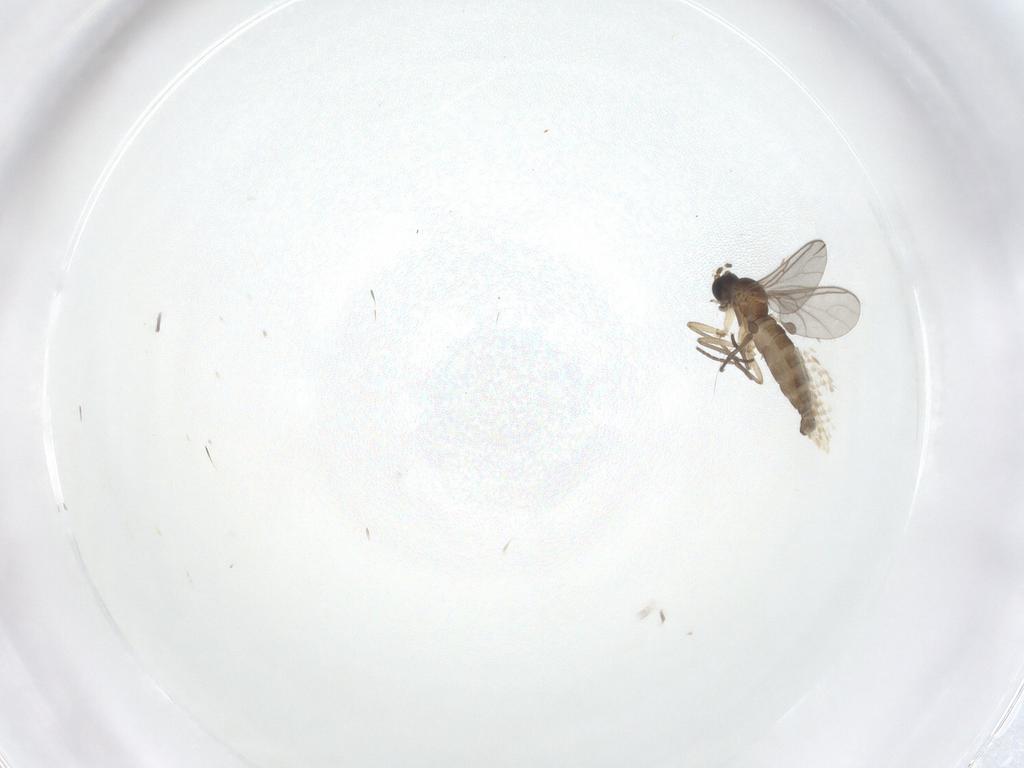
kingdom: Animalia
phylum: Arthropoda
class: Insecta
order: Diptera
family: Sciaridae
